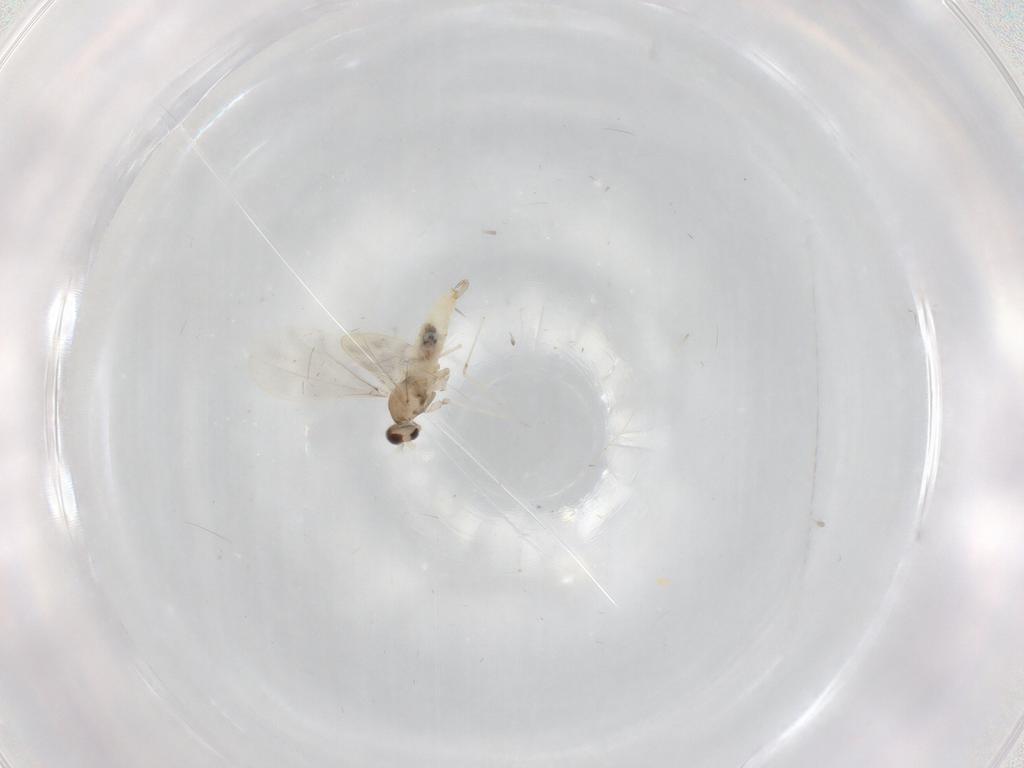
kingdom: Animalia
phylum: Arthropoda
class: Insecta
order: Diptera
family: Cecidomyiidae
